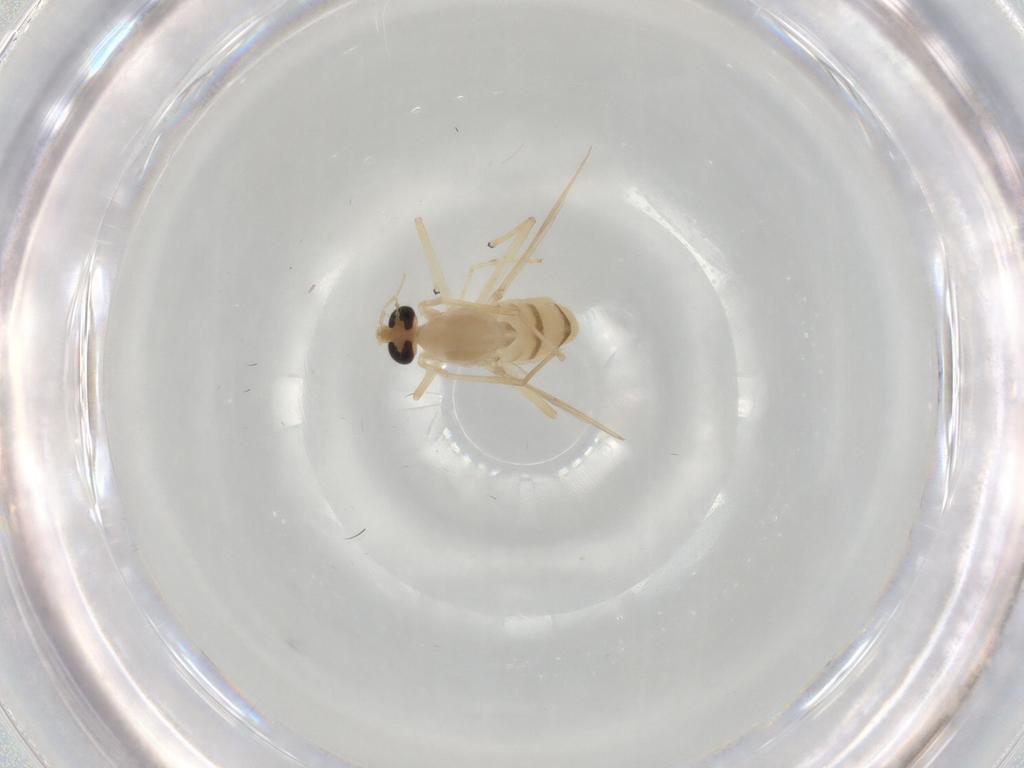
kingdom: Animalia
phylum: Arthropoda
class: Insecta
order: Diptera
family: Chironomidae
